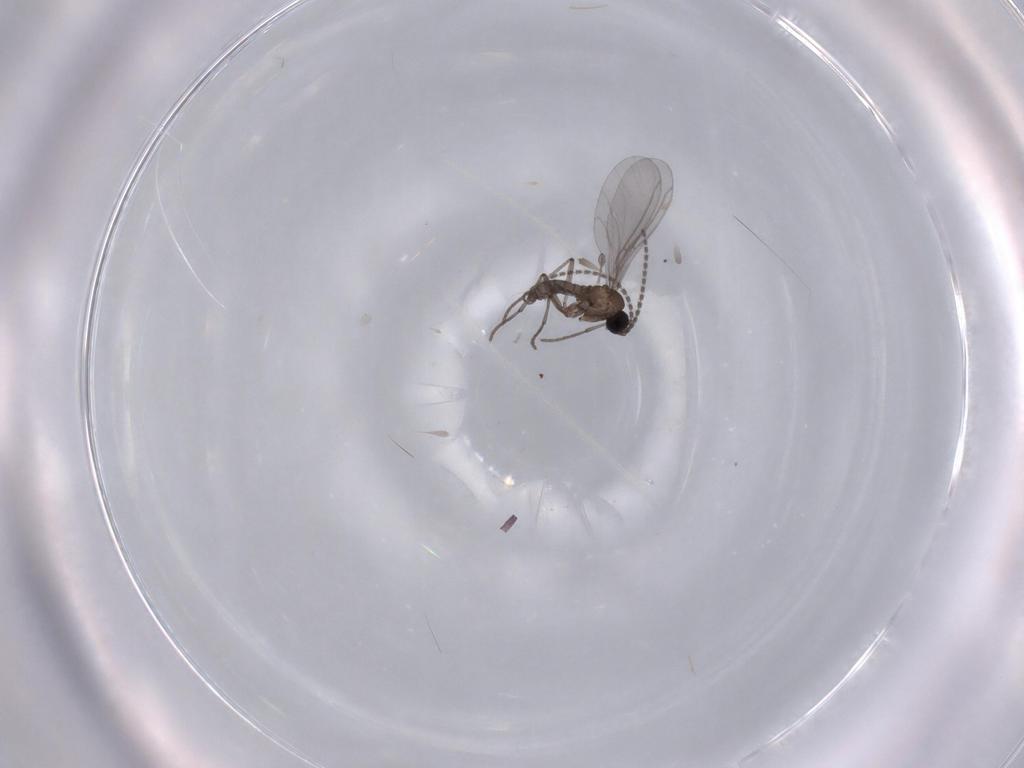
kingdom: Animalia
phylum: Arthropoda
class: Insecta
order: Diptera
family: Sciaridae
